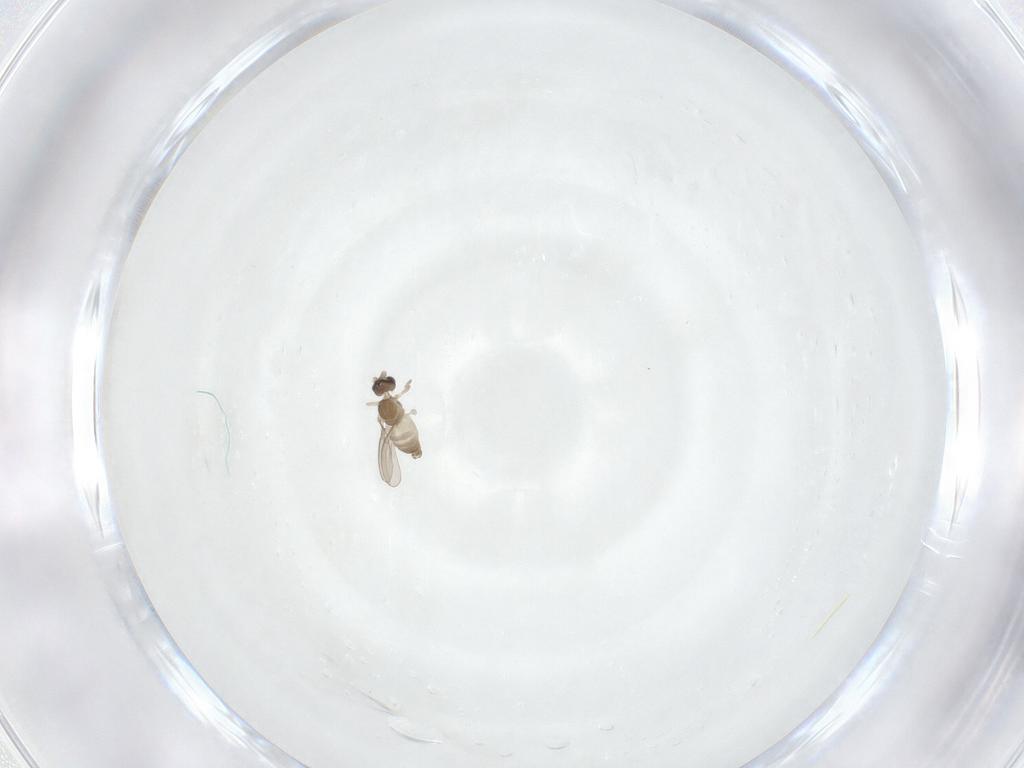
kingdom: Animalia
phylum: Arthropoda
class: Insecta
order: Diptera
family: Cecidomyiidae
